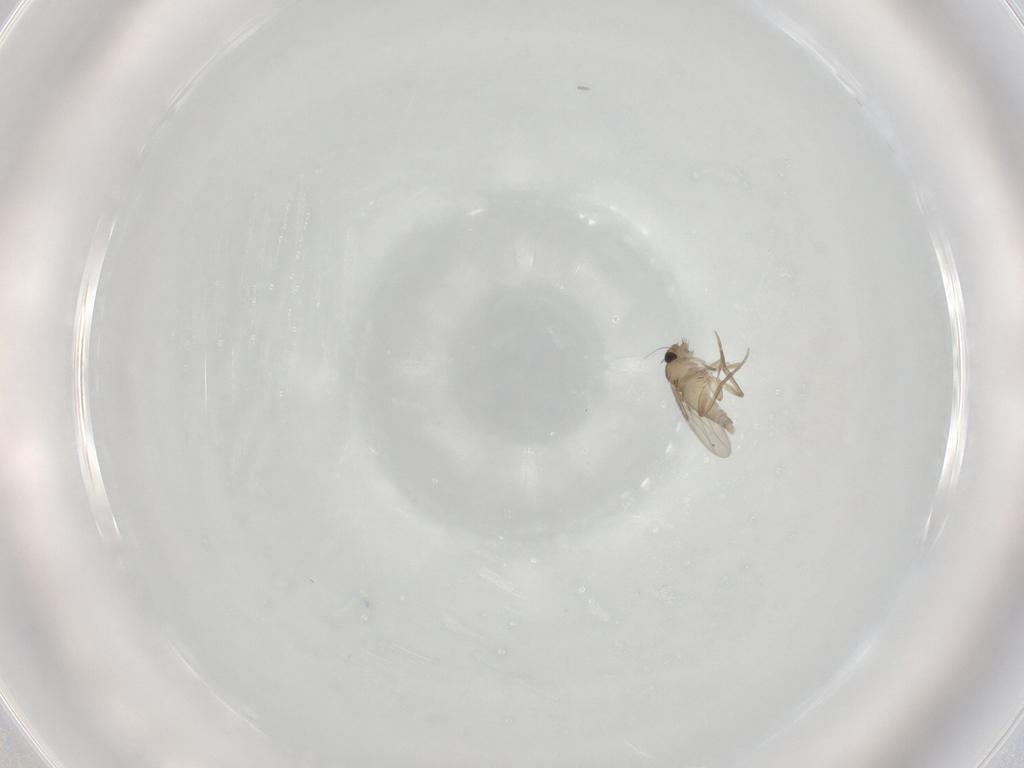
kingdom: Animalia
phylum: Arthropoda
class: Insecta
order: Diptera
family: Phoridae
